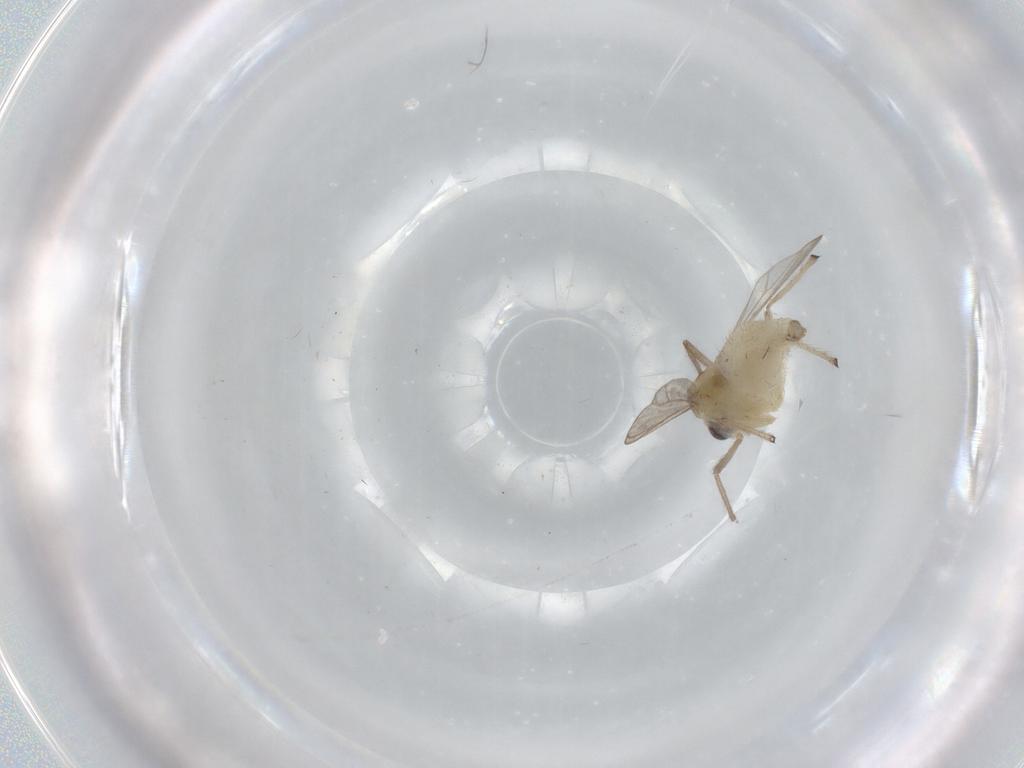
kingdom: Animalia
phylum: Arthropoda
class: Insecta
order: Diptera
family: Chironomidae
